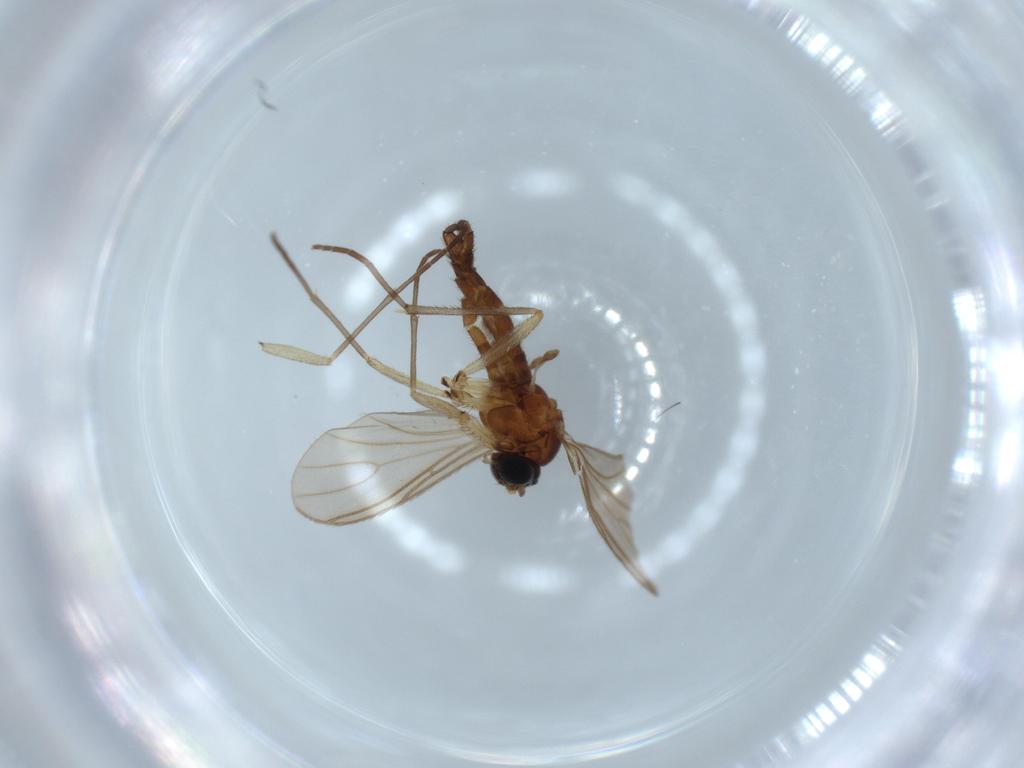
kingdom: Animalia
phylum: Arthropoda
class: Insecta
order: Diptera
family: Sciaridae
